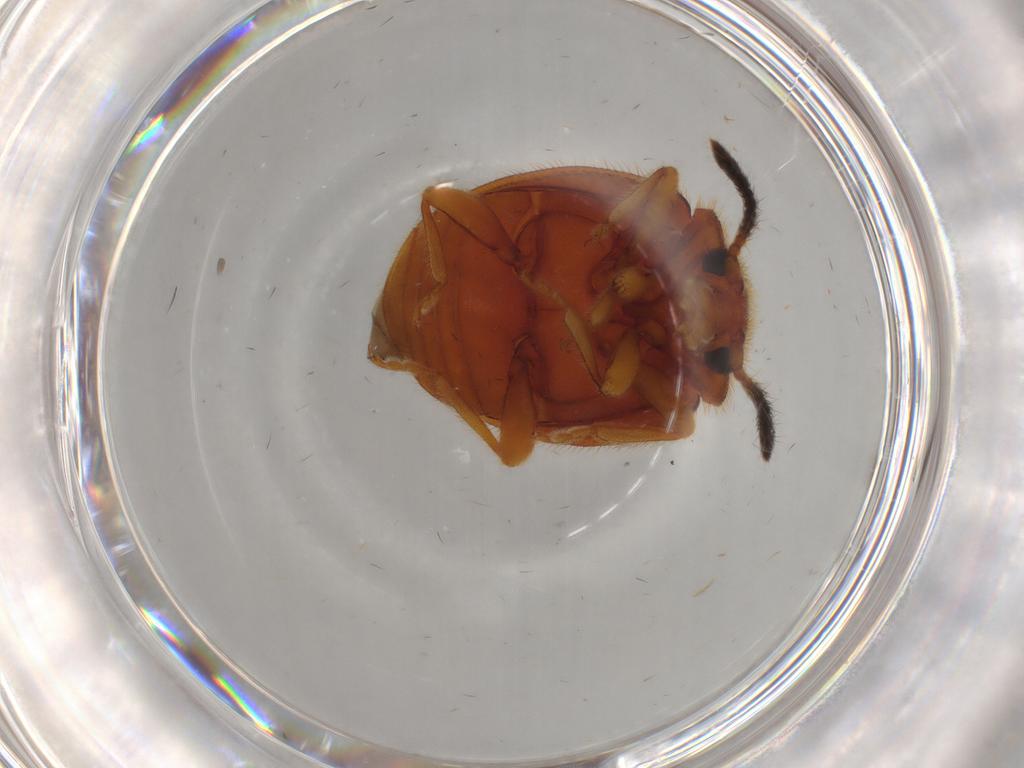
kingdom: Animalia
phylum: Arthropoda
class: Insecta
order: Coleoptera
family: Endomychidae
